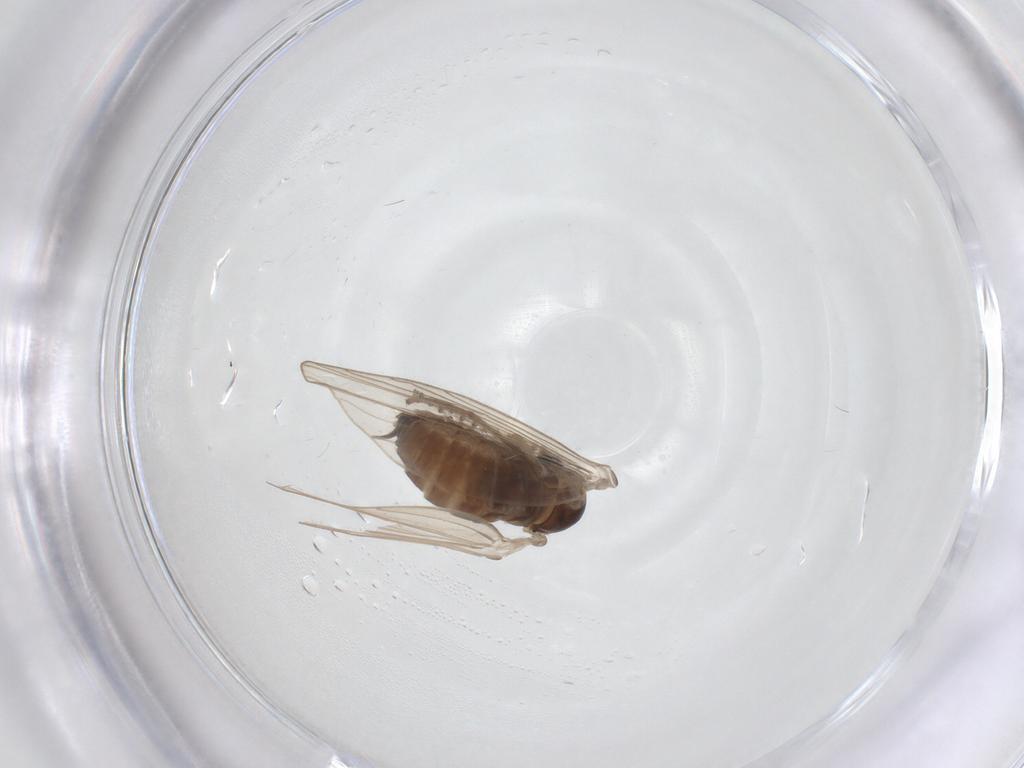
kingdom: Animalia
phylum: Arthropoda
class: Insecta
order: Diptera
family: Psychodidae
